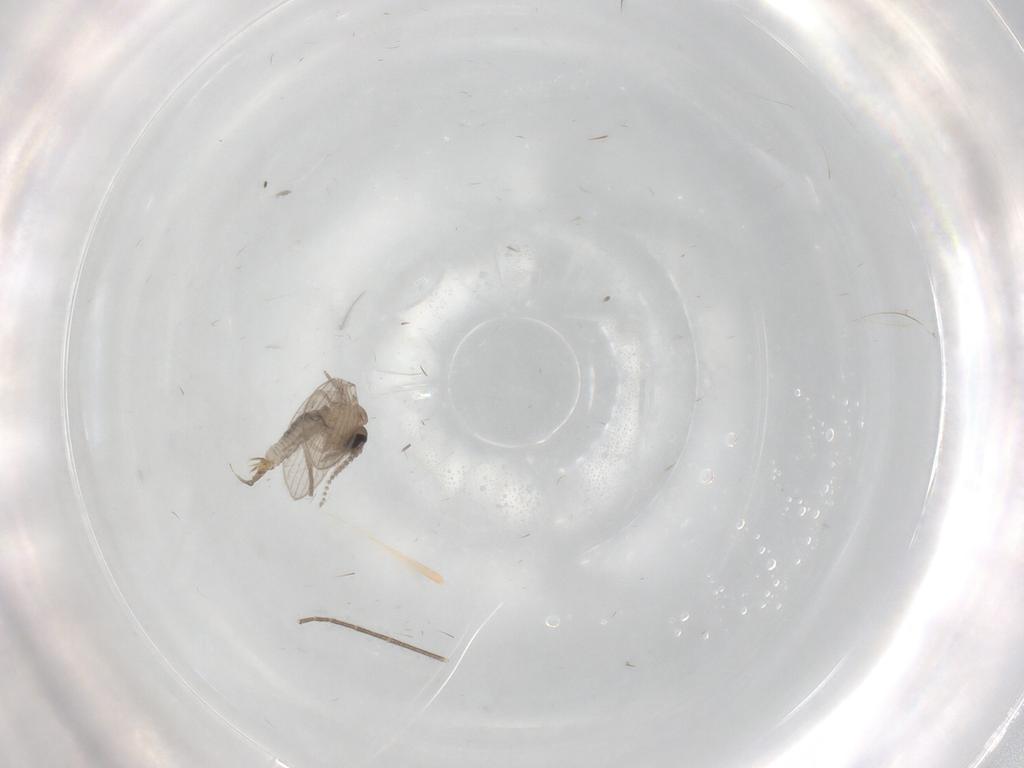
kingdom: Animalia
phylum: Arthropoda
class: Insecta
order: Diptera
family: Psychodidae
